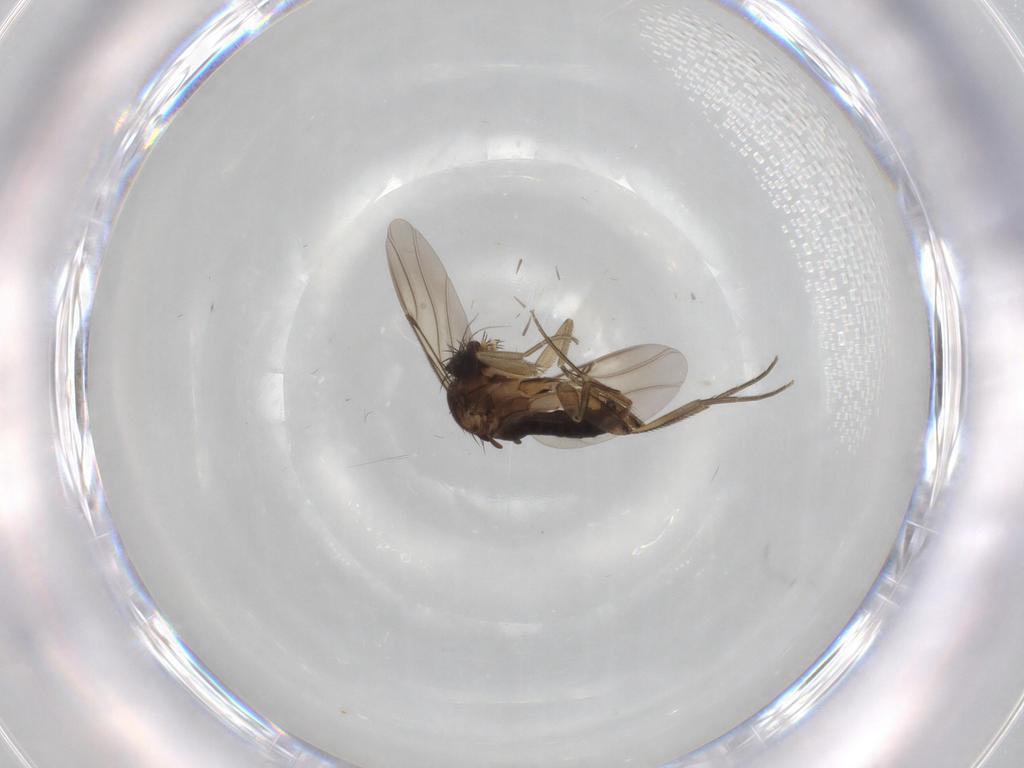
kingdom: Animalia
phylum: Arthropoda
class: Insecta
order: Diptera
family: Phoridae
